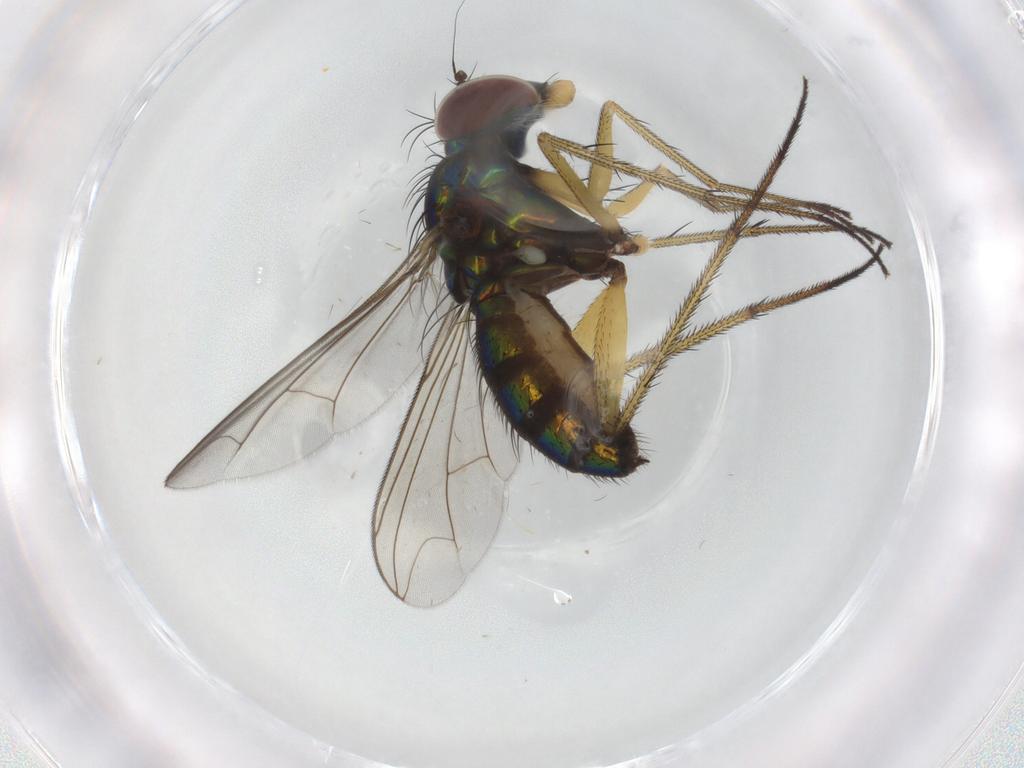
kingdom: Animalia
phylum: Arthropoda
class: Insecta
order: Diptera
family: Dolichopodidae
